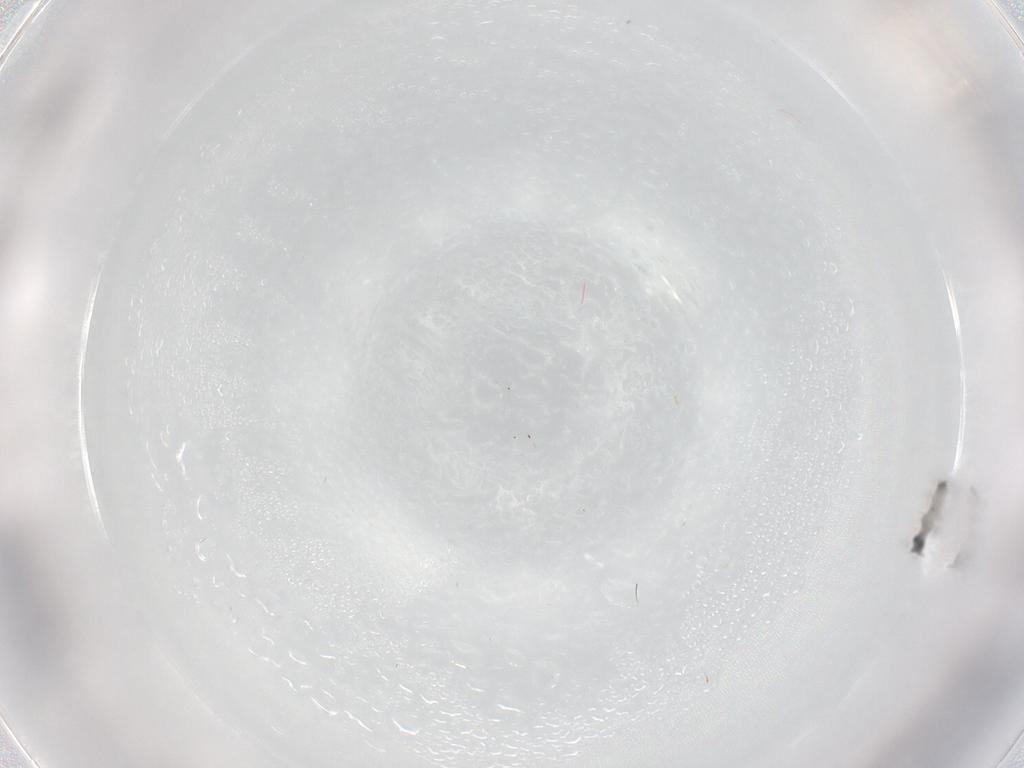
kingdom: Animalia
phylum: Arthropoda
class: Insecta
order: Diptera
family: Cecidomyiidae
